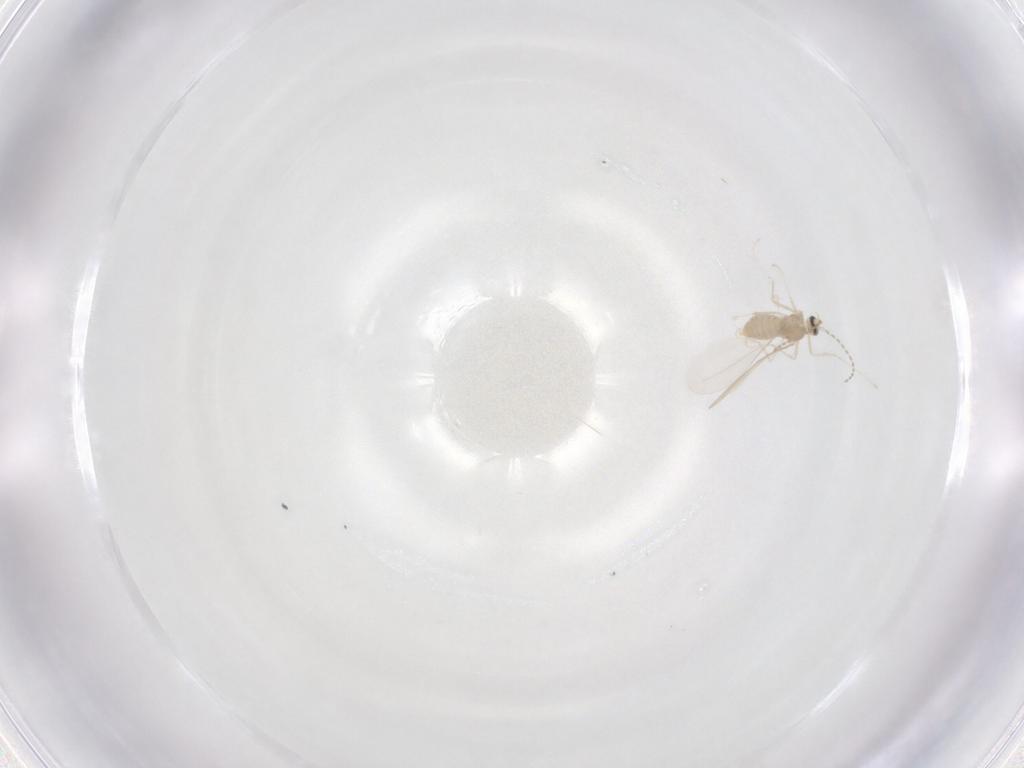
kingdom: Animalia
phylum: Arthropoda
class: Insecta
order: Diptera
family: Cecidomyiidae
